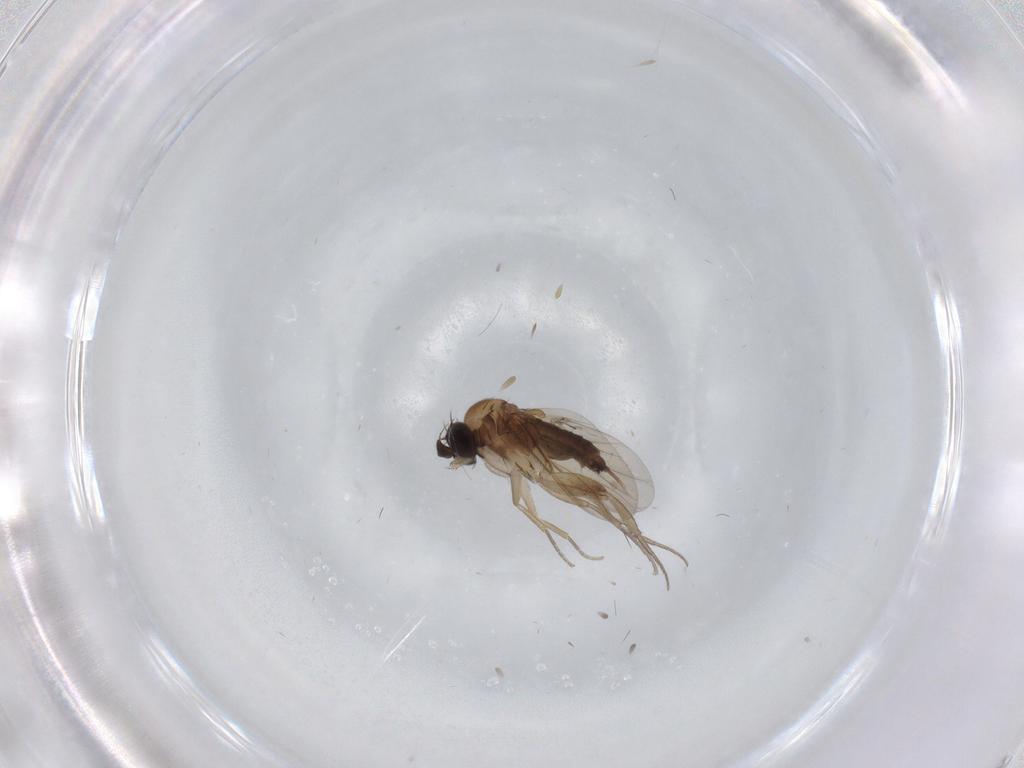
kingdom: Animalia
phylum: Arthropoda
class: Insecta
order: Diptera
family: Phoridae
